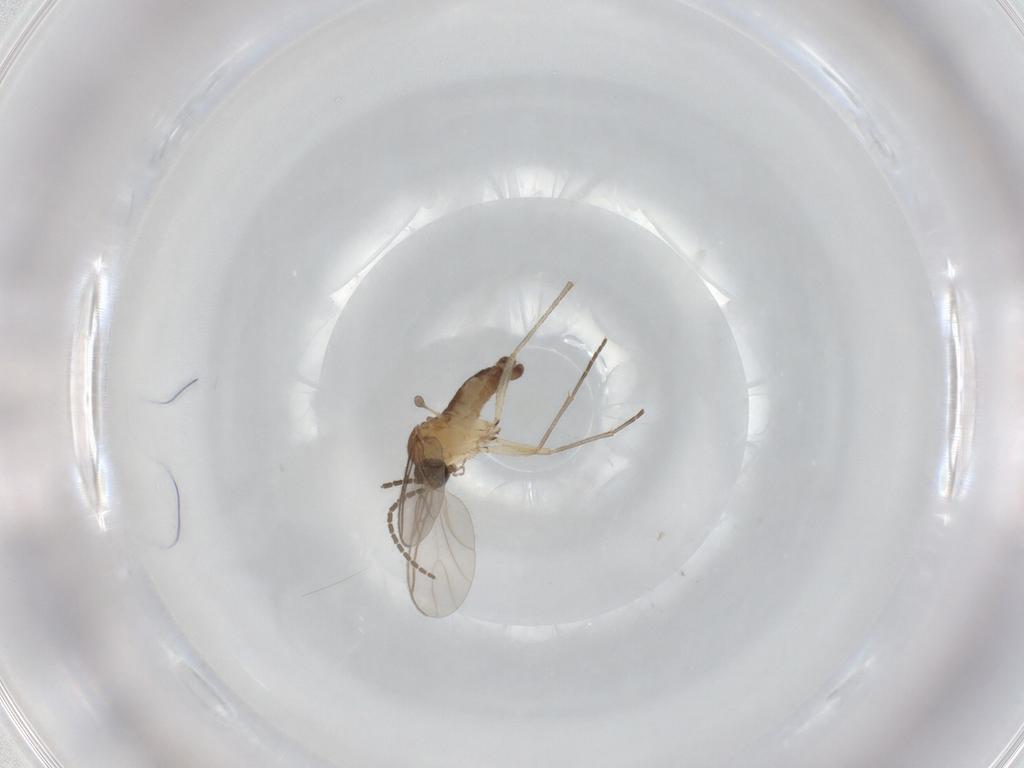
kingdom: Animalia
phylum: Arthropoda
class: Insecta
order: Diptera
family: Sciaridae
